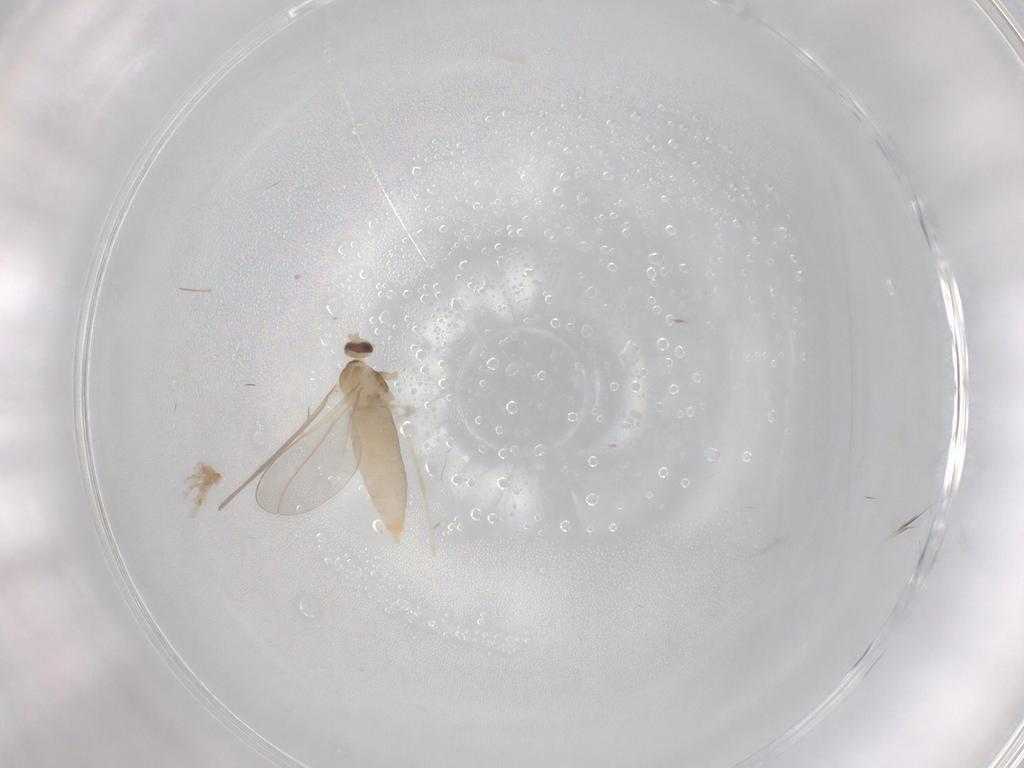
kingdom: Animalia
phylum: Arthropoda
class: Insecta
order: Diptera
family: Cecidomyiidae
